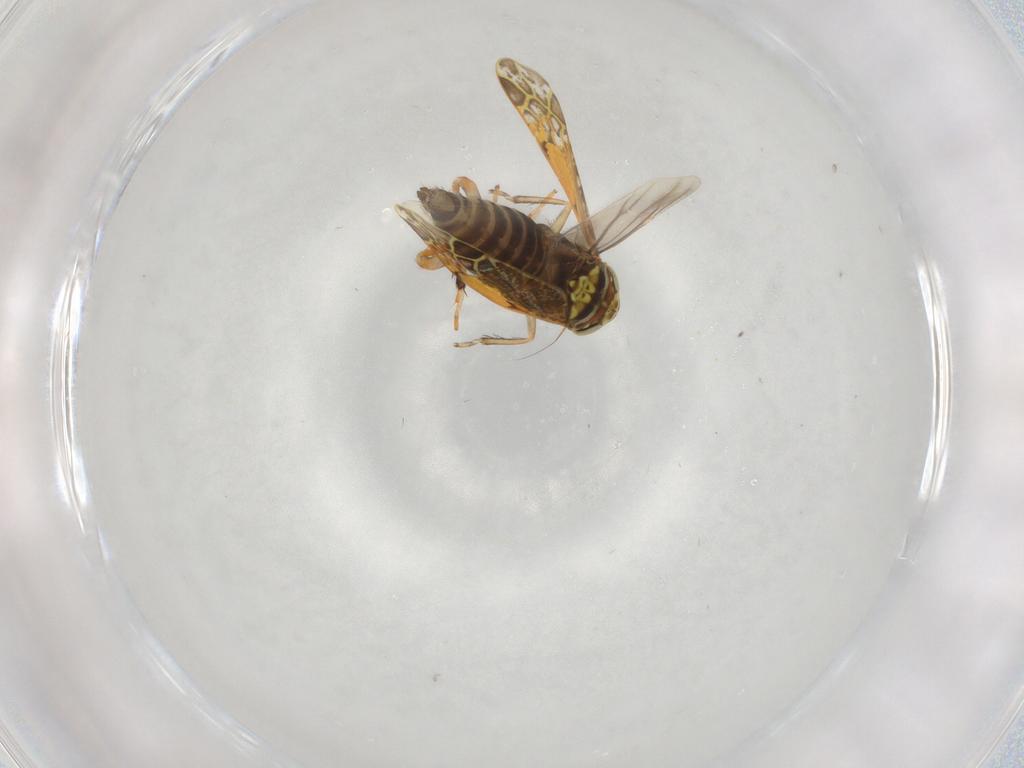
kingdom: Animalia
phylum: Arthropoda
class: Insecta
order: Hemiptera
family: Cicadellidae
